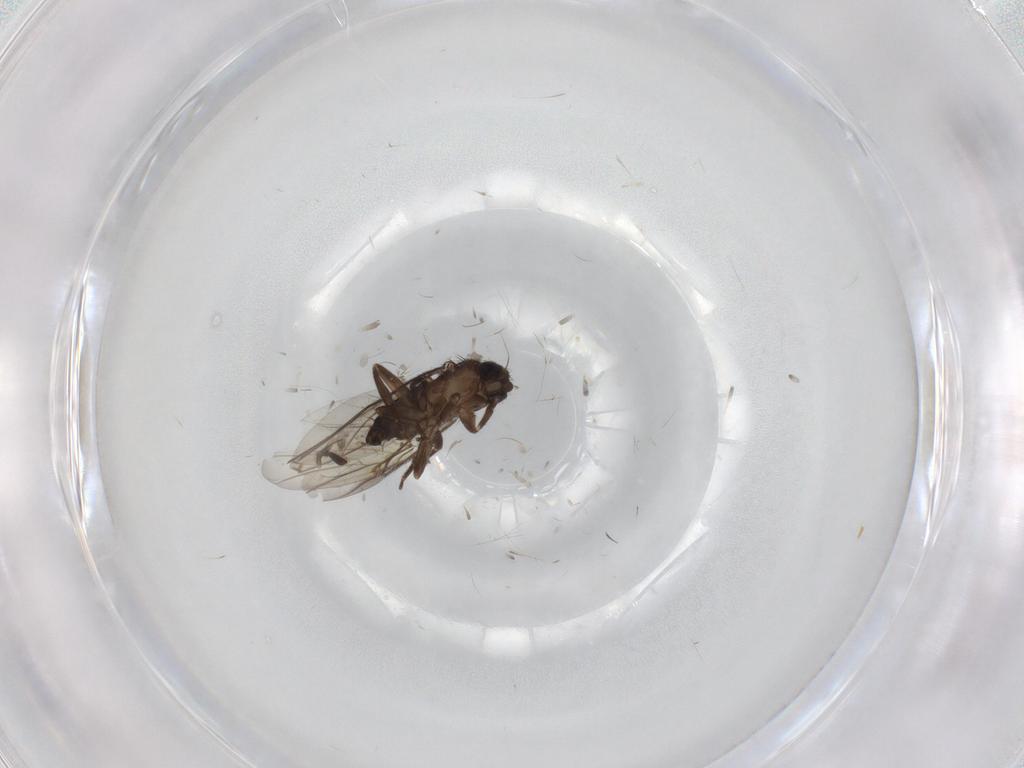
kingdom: Animalia
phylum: Arthropoda
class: Insecta
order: Diptera
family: Phoridae
